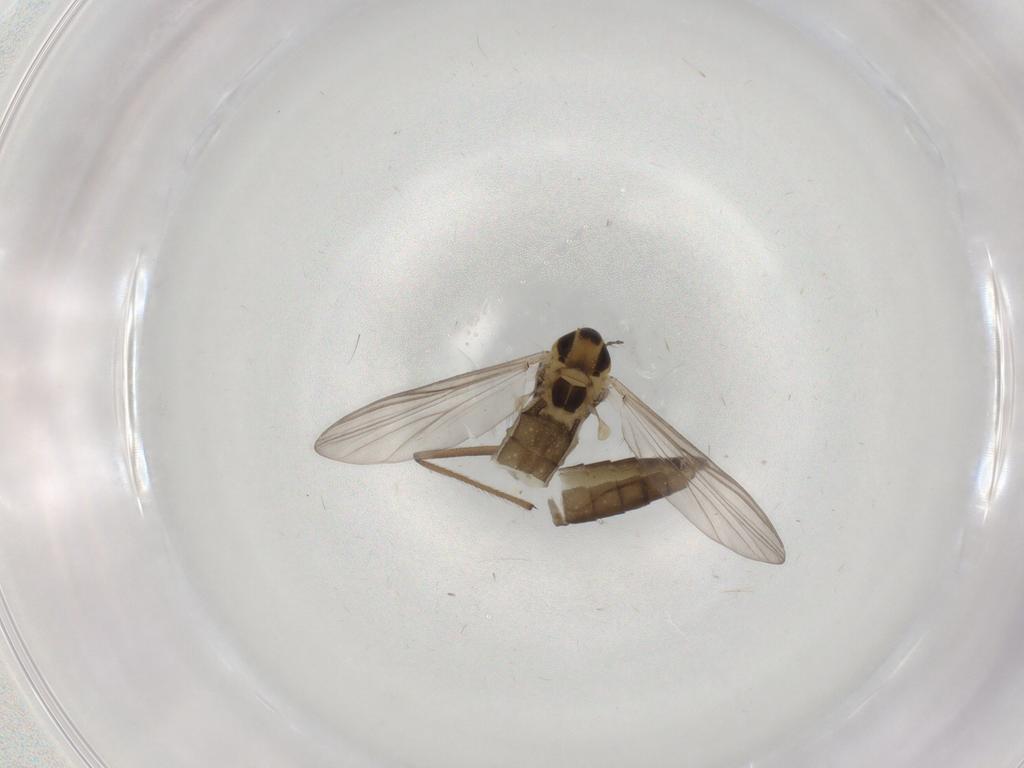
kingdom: Animalia
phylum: Arthropoda
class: Insecta
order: Diptera
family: Chironomidae
